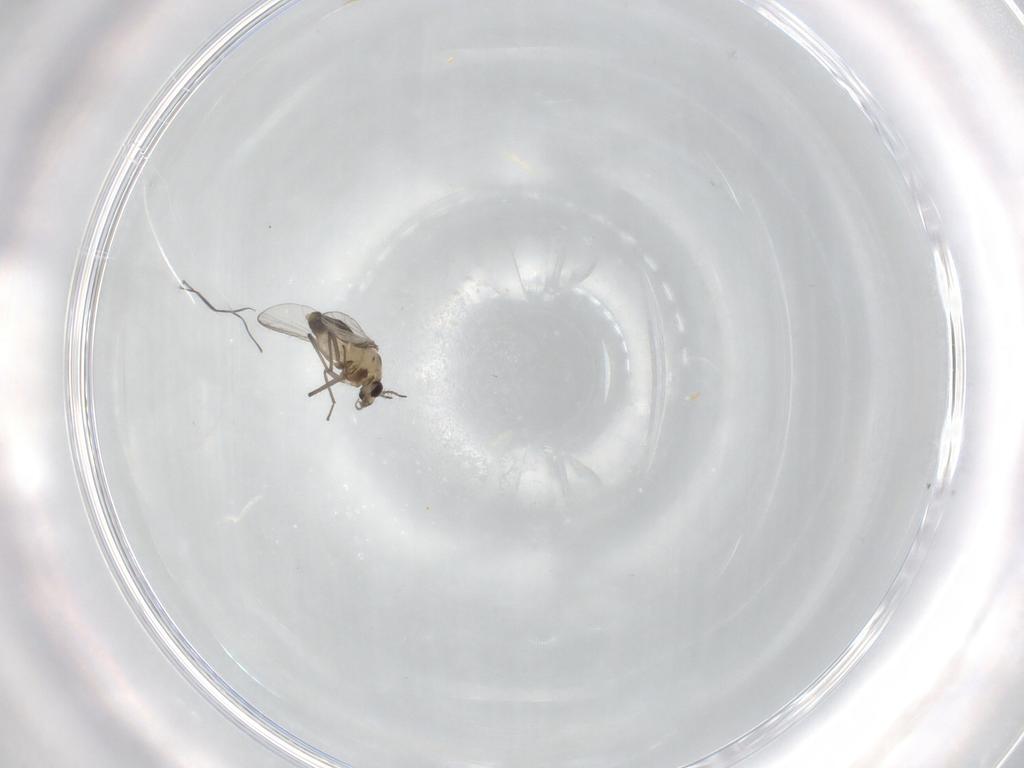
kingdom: Animalia
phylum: Arthropoda
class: Insecta
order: Diptera
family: Chironomidae
